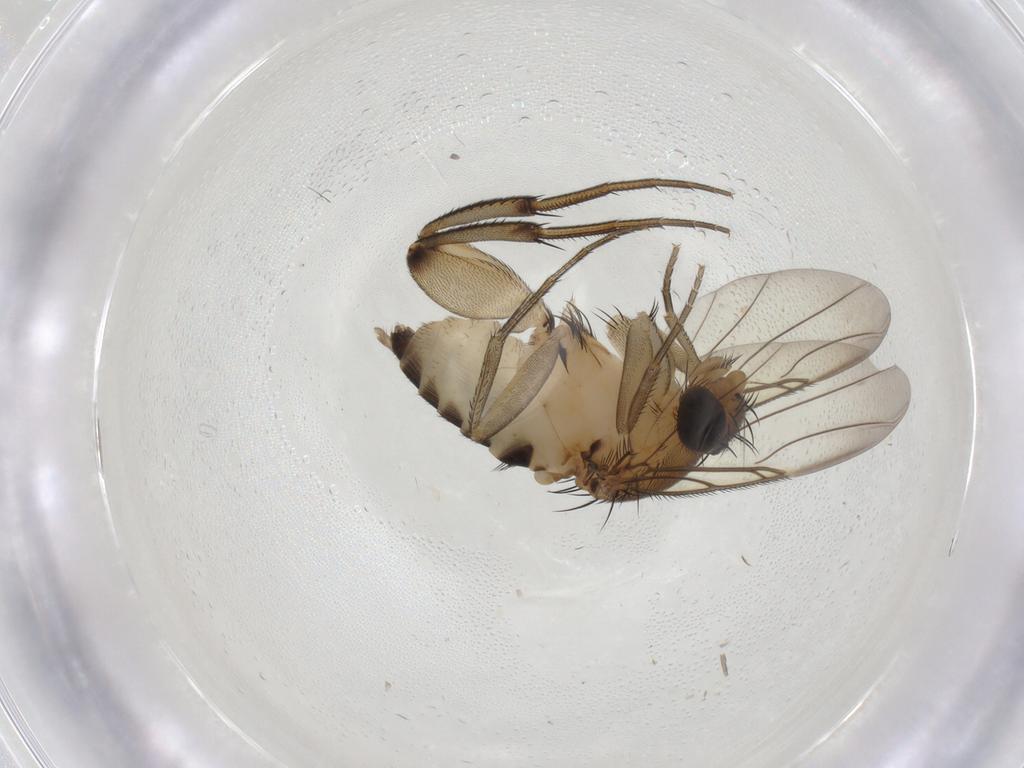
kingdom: Animalia
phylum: Arthropoda
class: Insecta
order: Diptera
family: Phoridae
